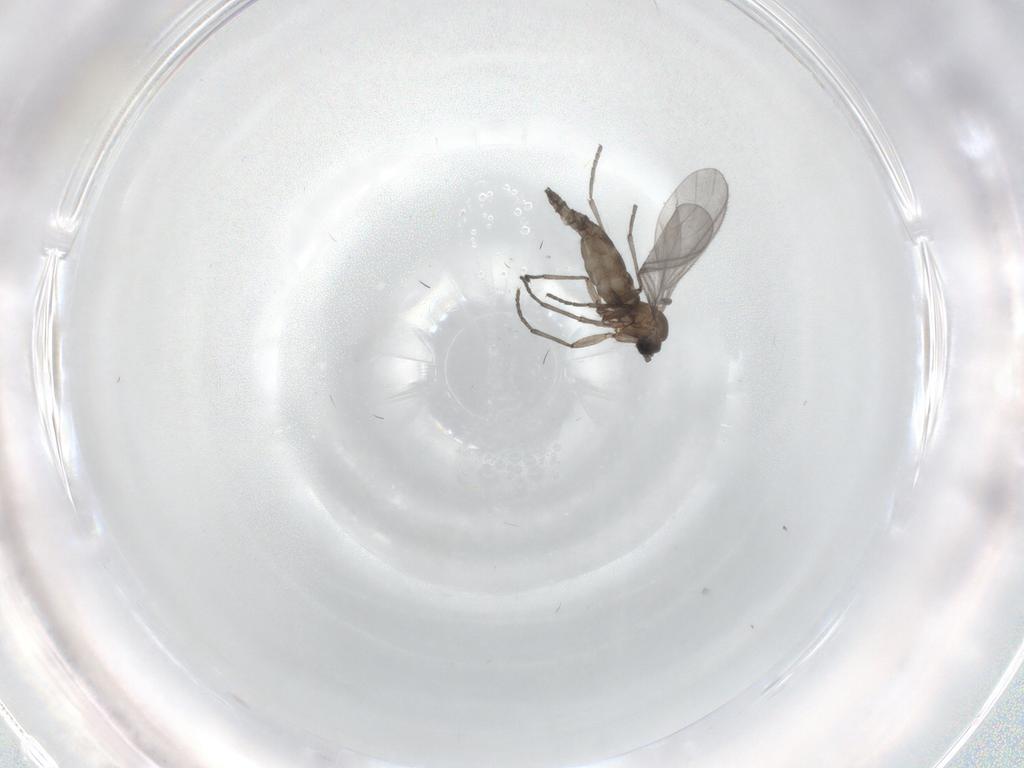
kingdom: Animalia
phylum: Arthropoda
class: Insecta
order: Diptera
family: Sciaridae
